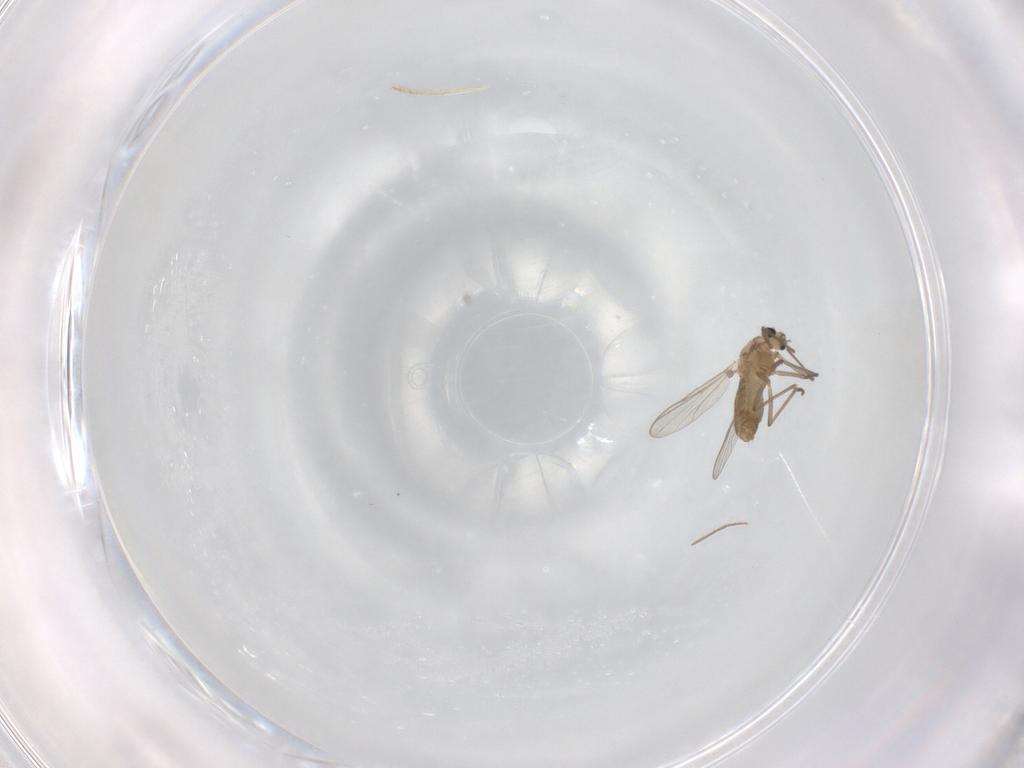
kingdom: Animalia
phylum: Arthropoda
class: Insecta
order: Diptera
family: Chironomidae
